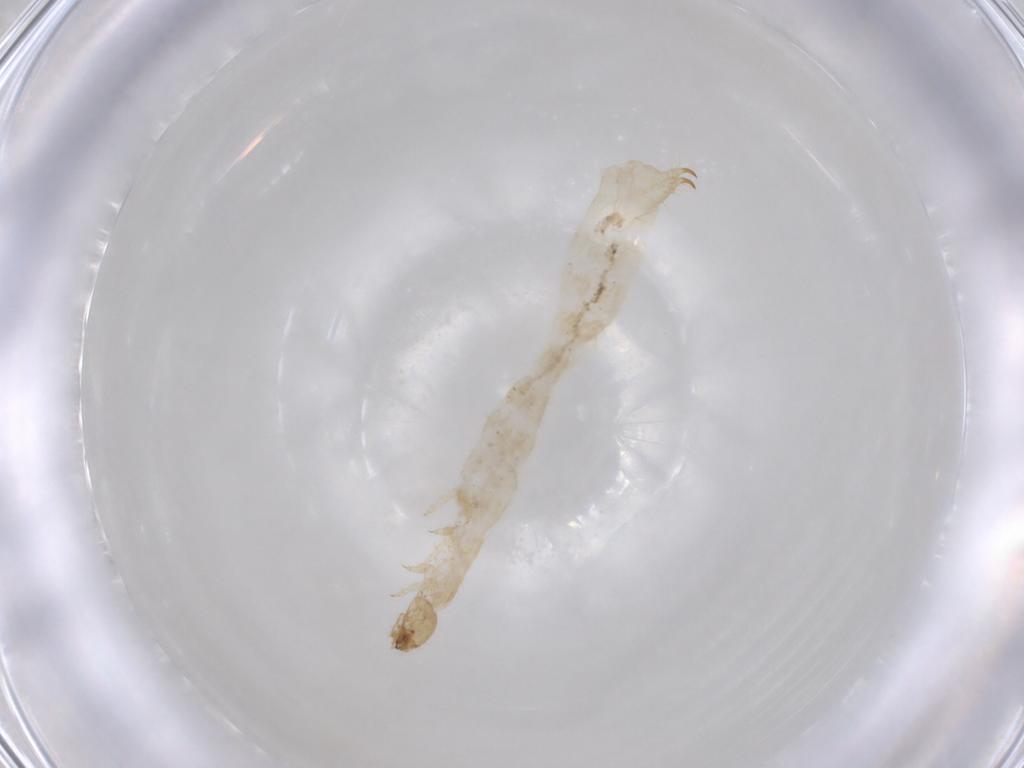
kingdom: Animalia
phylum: Arthropoda
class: Insecta
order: Coleoptera
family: Anthicidae
